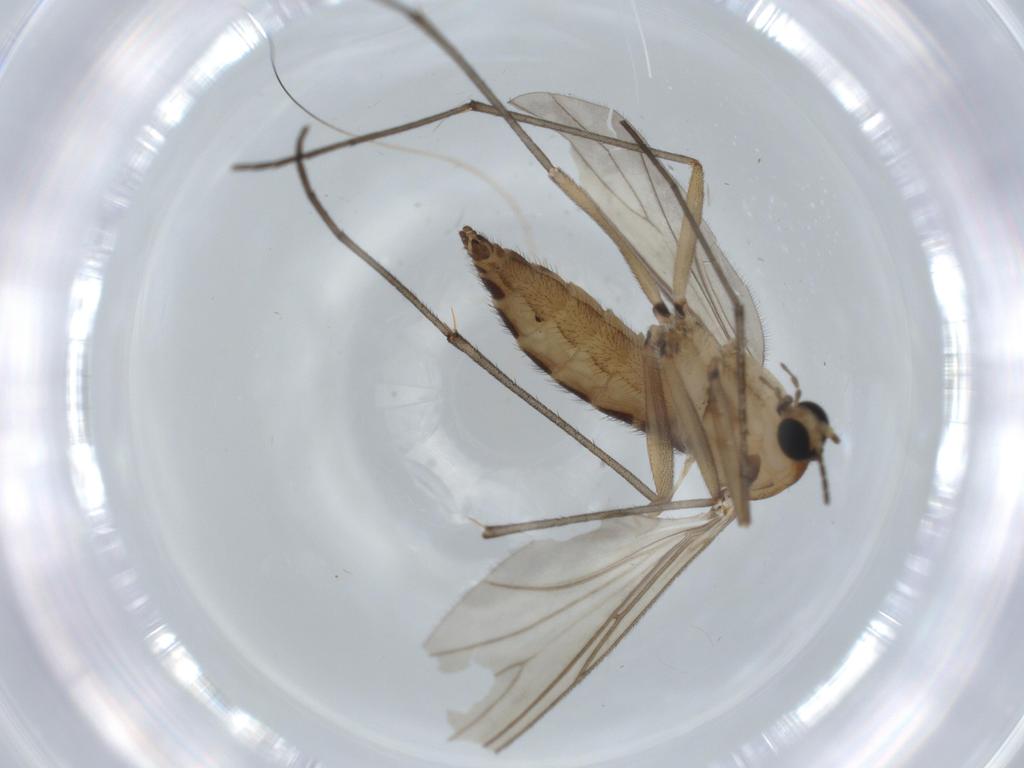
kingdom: Animalia
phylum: Arthropoda
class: Insecta
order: Diptera
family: Sciaridae
